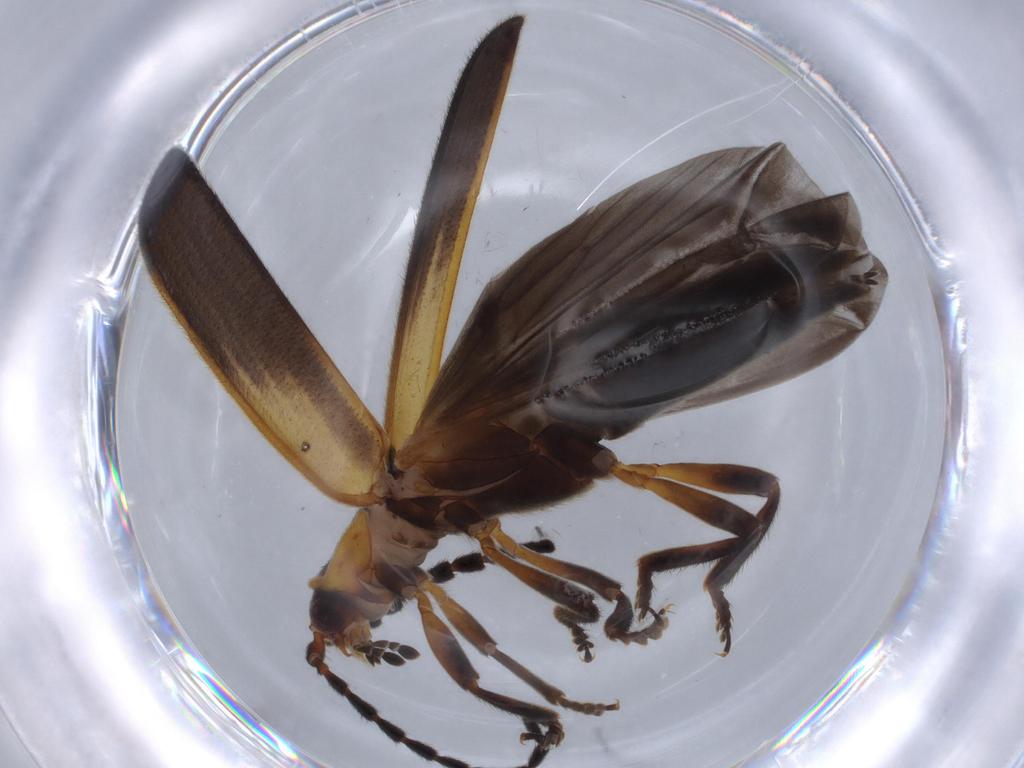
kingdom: Animalia
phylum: Arthropoda
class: Insecta
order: Coleoptera
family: Lycidae
